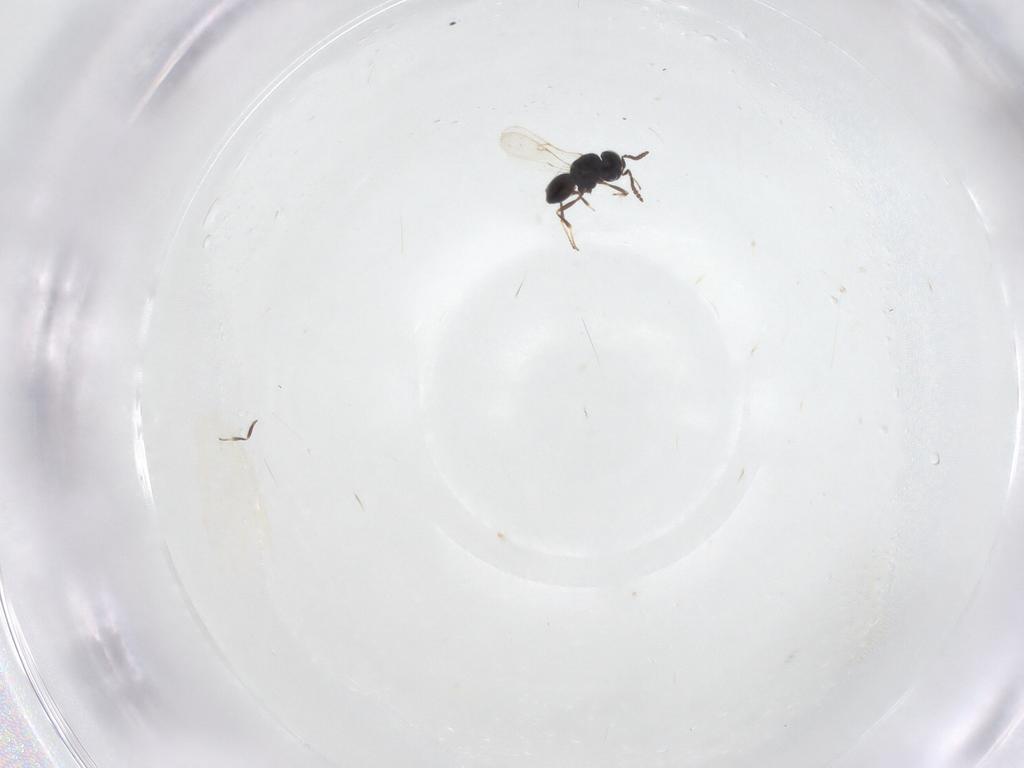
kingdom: Animalia
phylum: Arthropoda
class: Insecta
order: Hymenoptera
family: Scelionidae
